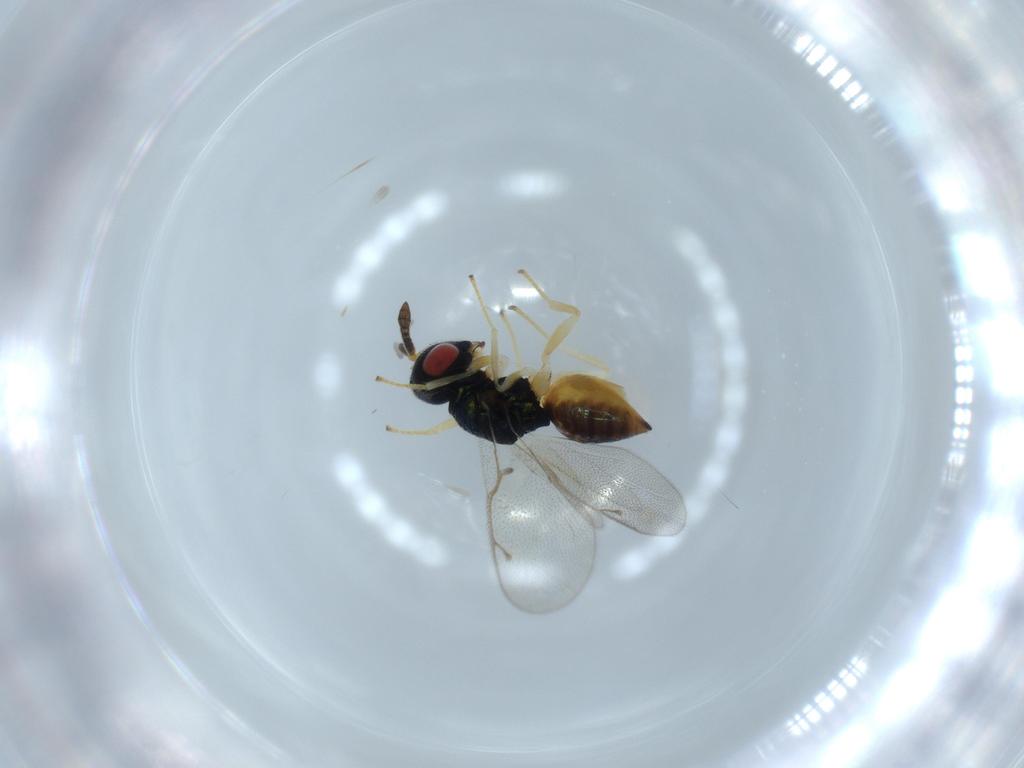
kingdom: Animalia
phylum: Arthropoda
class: Insecta
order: Hymenoptera
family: Pteromalidae
